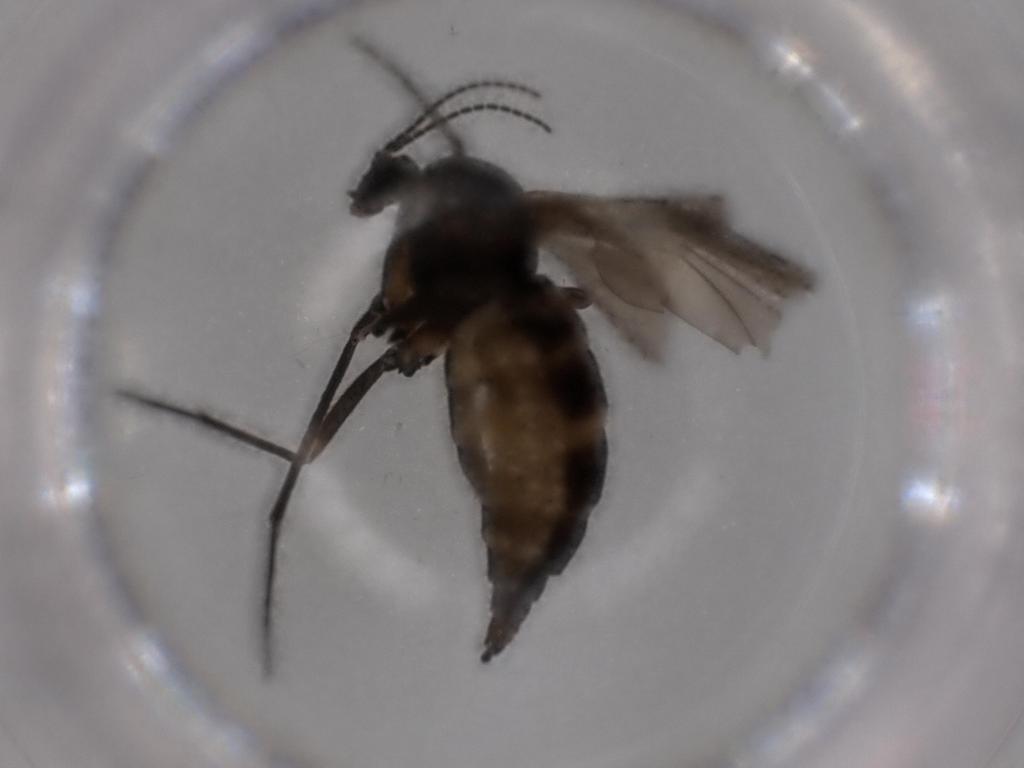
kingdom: Animalia
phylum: Arthropoda
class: Insecta
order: Diptera
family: Sciaridae
